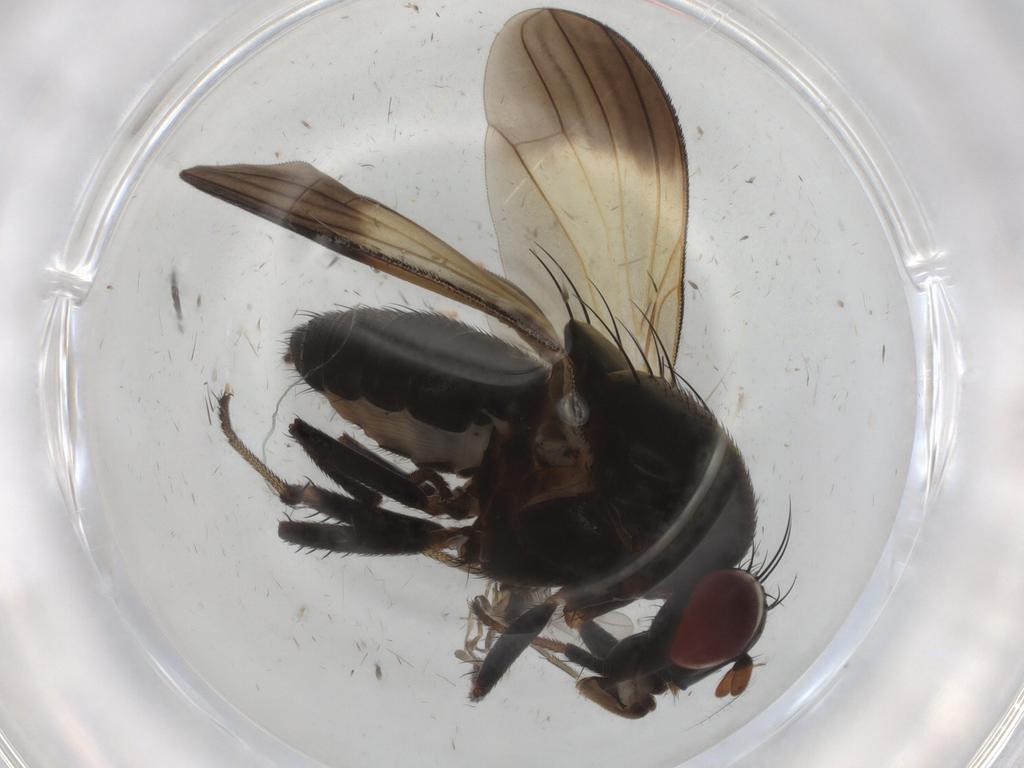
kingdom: Animalia
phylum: Arthropoda
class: Insecta
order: Diptera
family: Lauxaniidae
